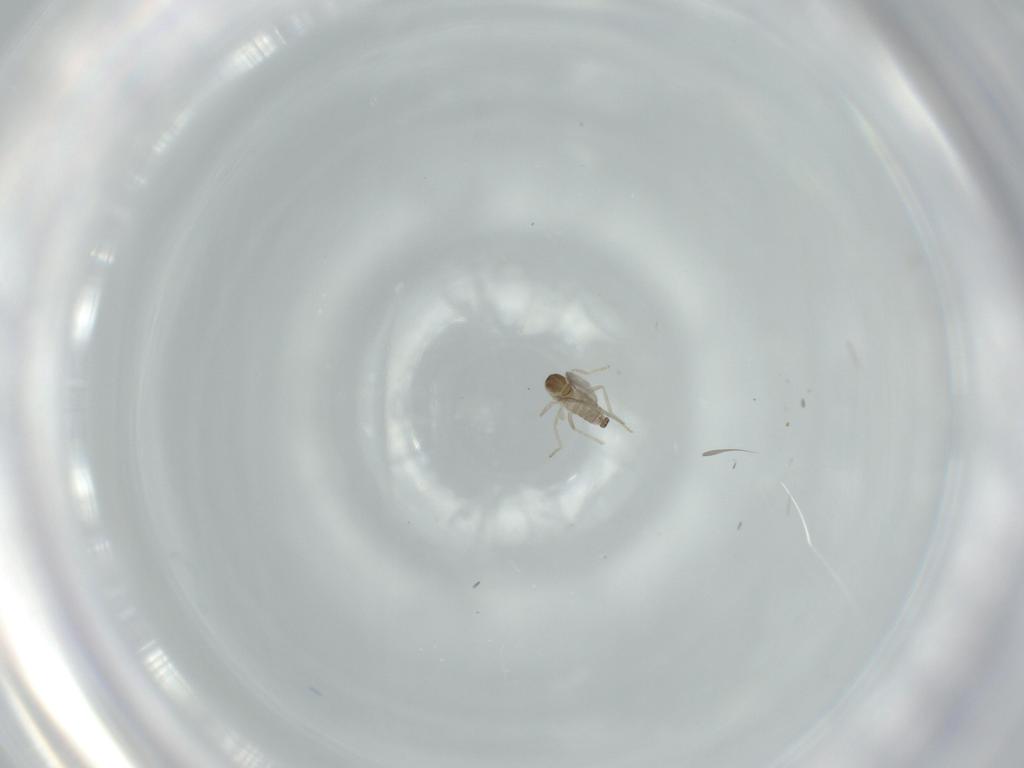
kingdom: Animalia
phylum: Arthropoda
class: Insecta
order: Diptera
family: Cecidomyiidae
